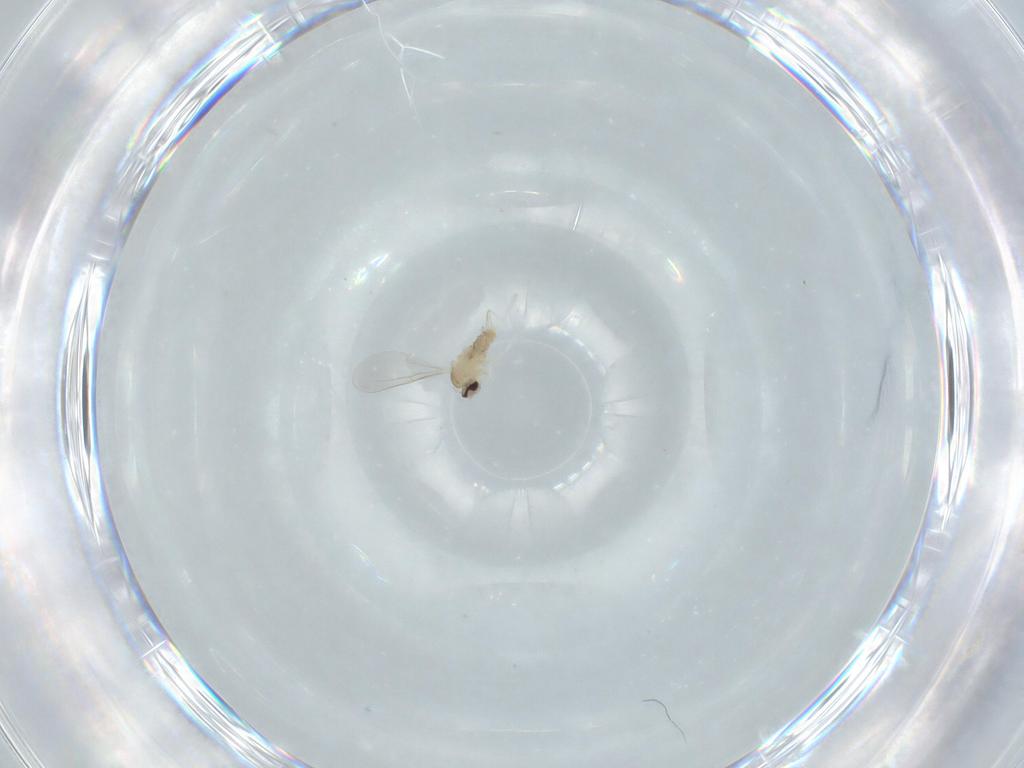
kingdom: Animalia
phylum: Arthropoda
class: Insecta
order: Diptera
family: Cecidomyiidae
